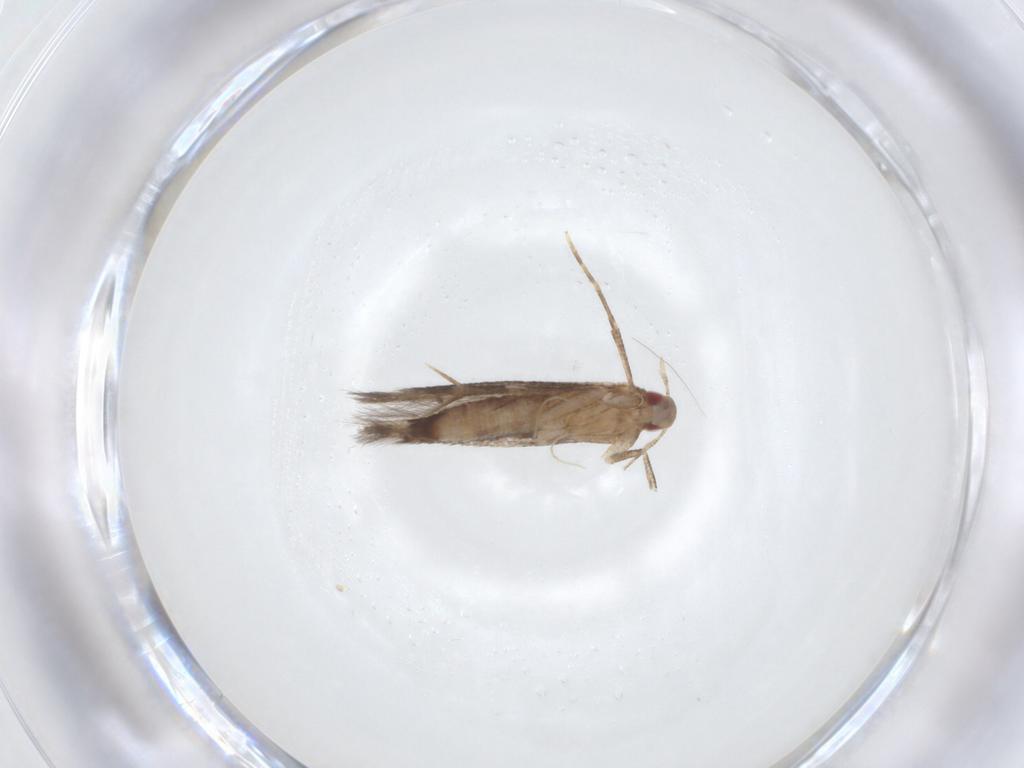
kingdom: Animalia
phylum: Arthropoda
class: Insecta
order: Lepidoptera
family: Cosmopterigidae
